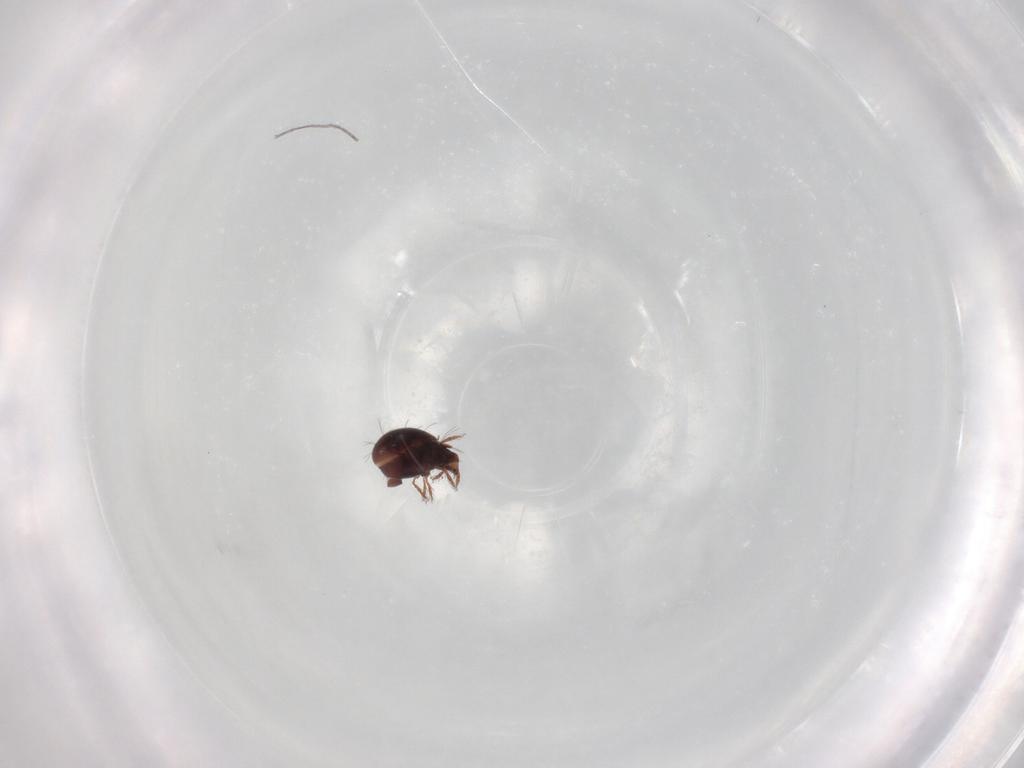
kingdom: Animalia
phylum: Arthropoda
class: Arachnida
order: Sarcoptiformes
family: Humerobatidae
